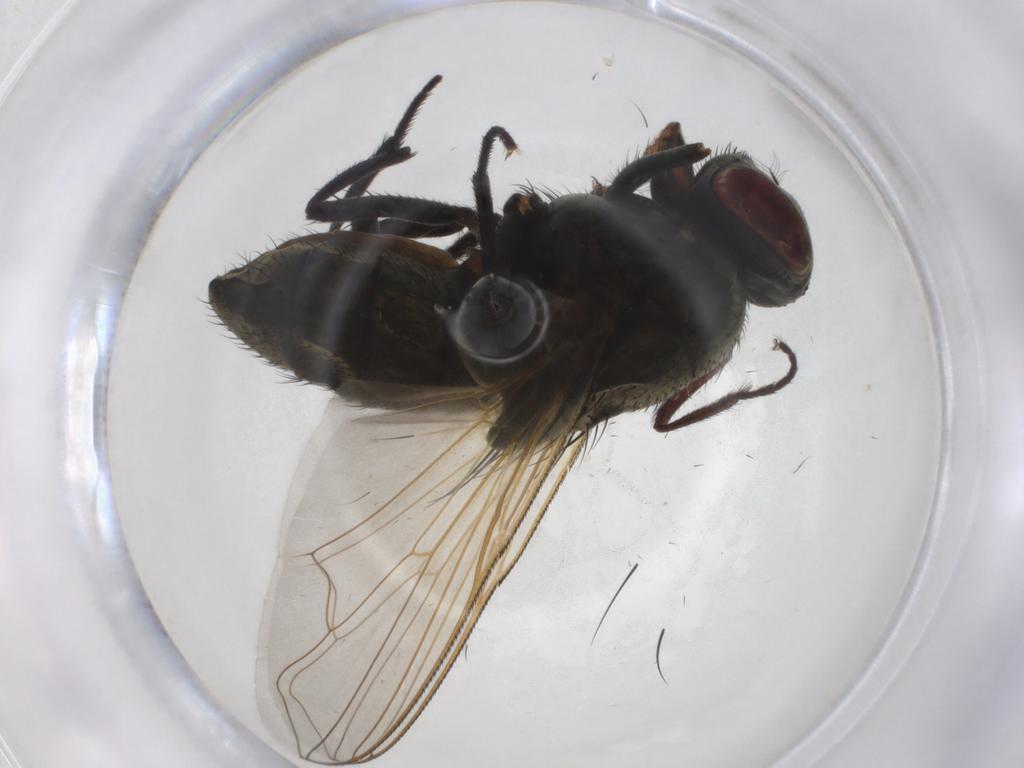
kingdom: Animalia
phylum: Arthropoda
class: Insecta
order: Diptera
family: Muscidae
